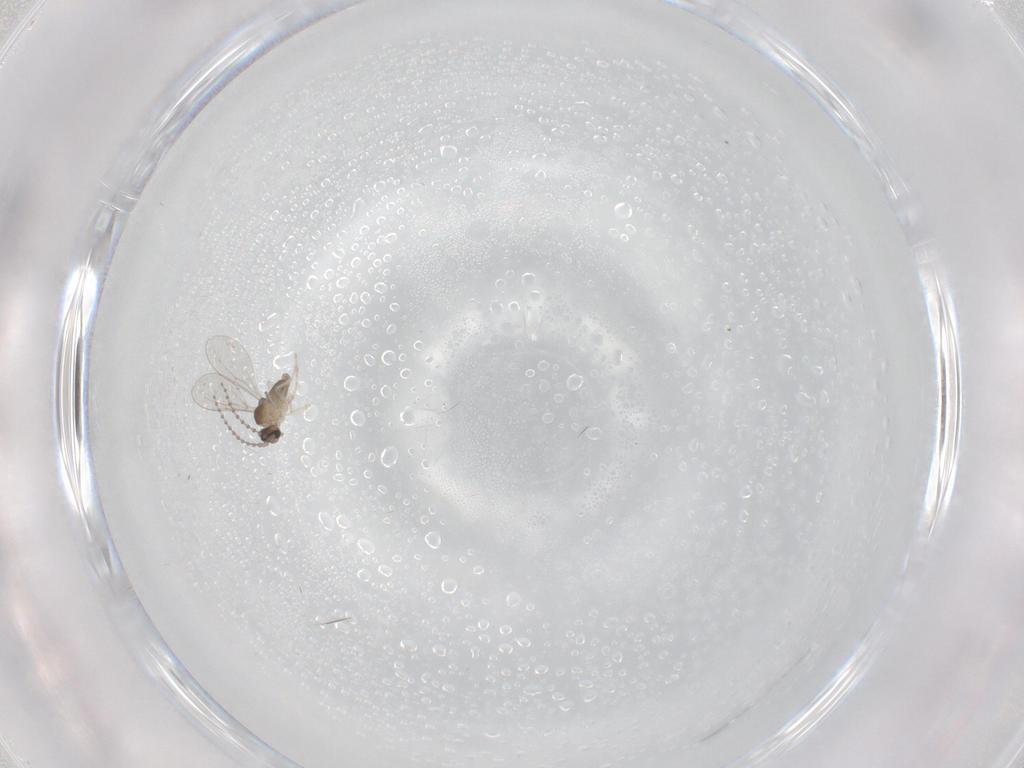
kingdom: Animalia
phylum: Arthropoda
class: Insecta
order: Diptera
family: Cecidomyiidae
